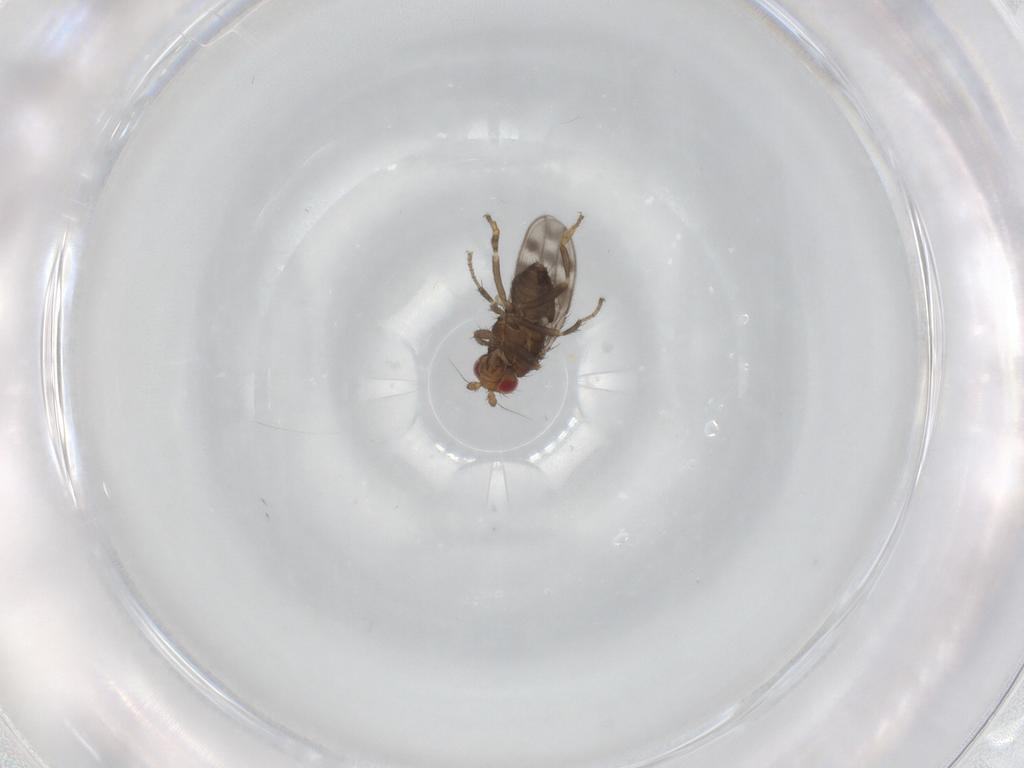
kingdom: Animalia
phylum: Arthropoda
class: Insecta
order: Diptera
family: Sphaeroceridae
